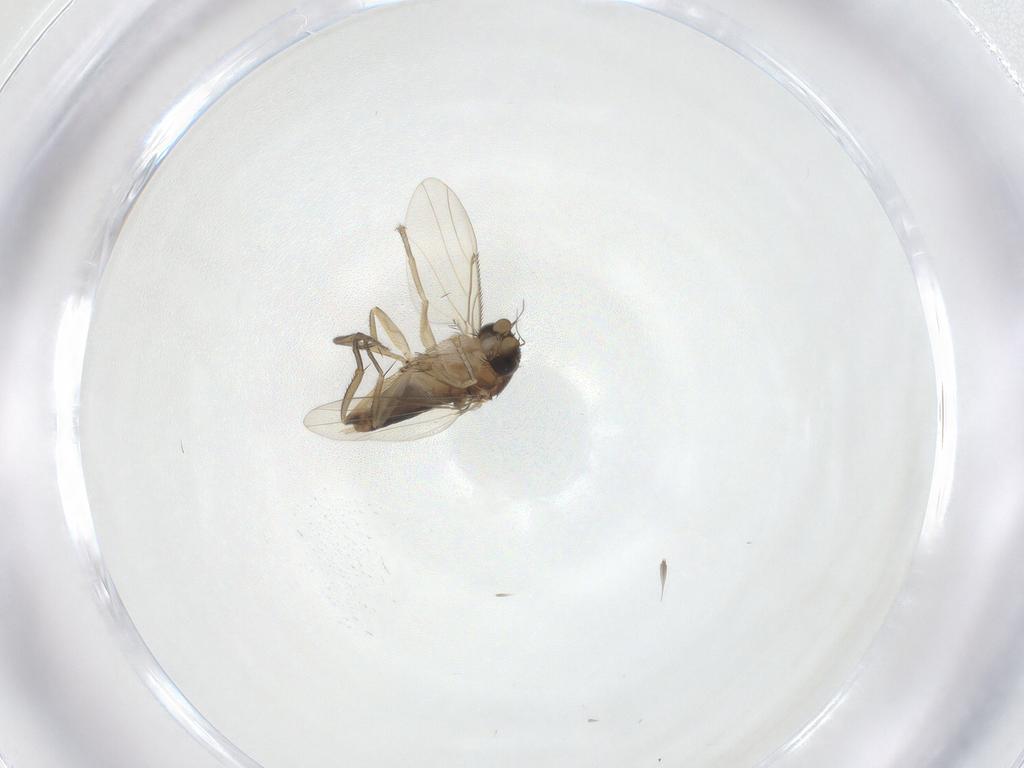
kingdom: Animalia
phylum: Arthropoda
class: Insecta
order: Diptera
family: Phoridae
